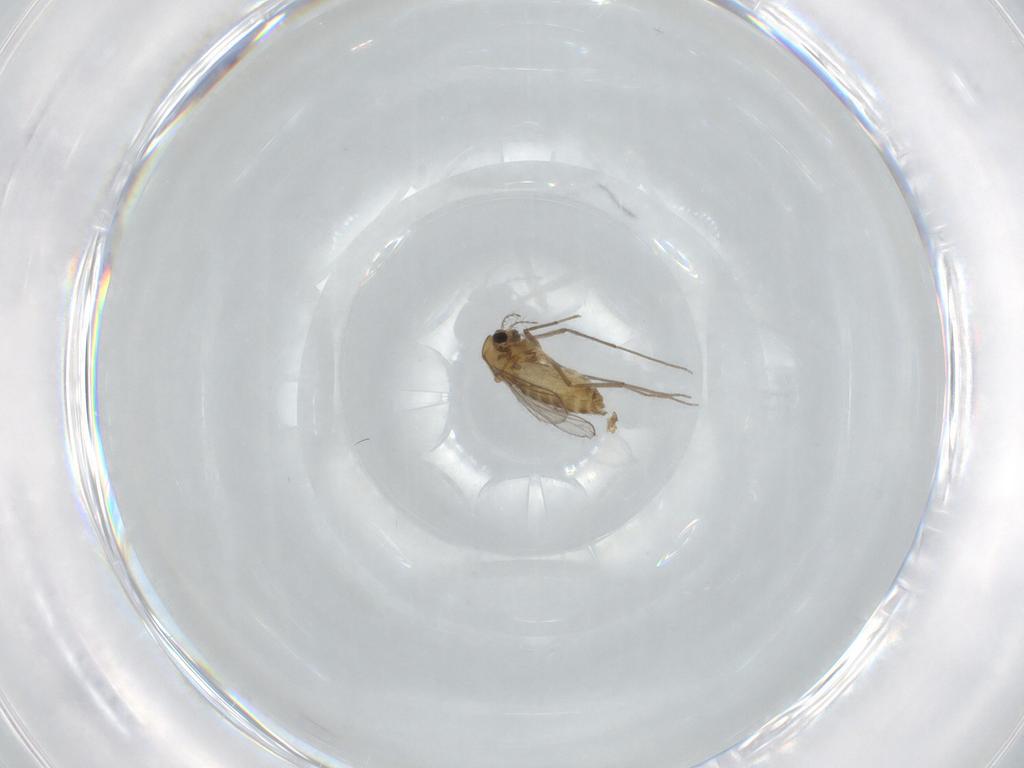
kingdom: Animalia
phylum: Arthropoda
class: Insecta
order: Diptera
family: Chironomidae
